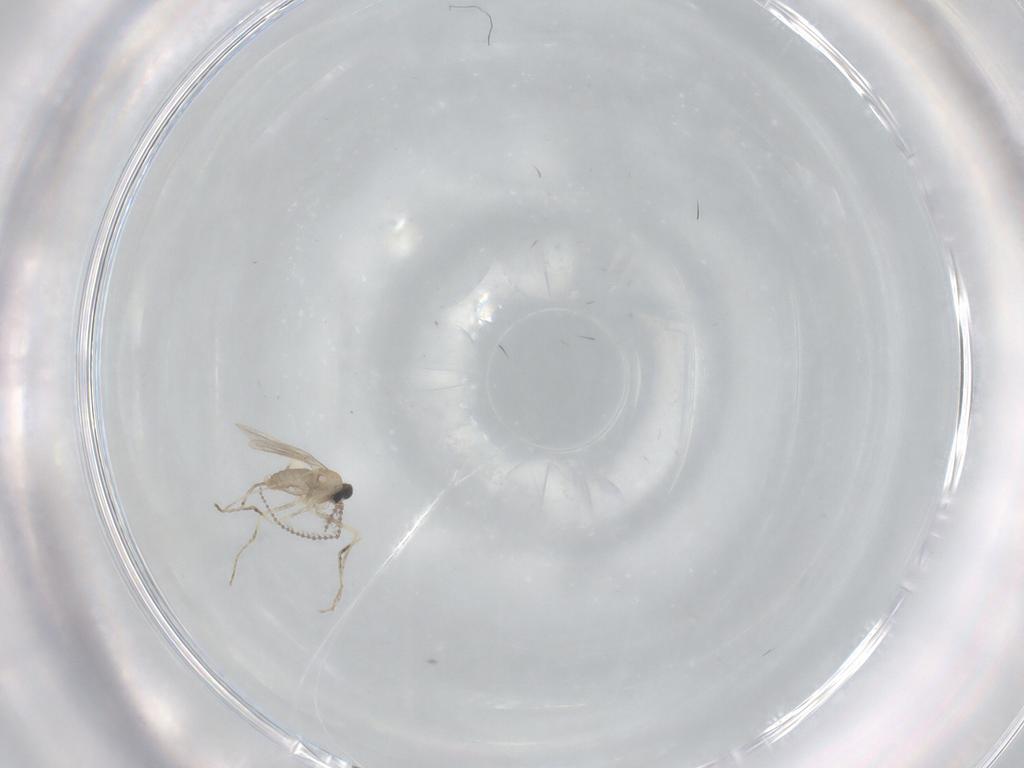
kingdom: Animalia
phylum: Arthropoda
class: Insecta
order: Diptera
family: Cecidomyiidae
